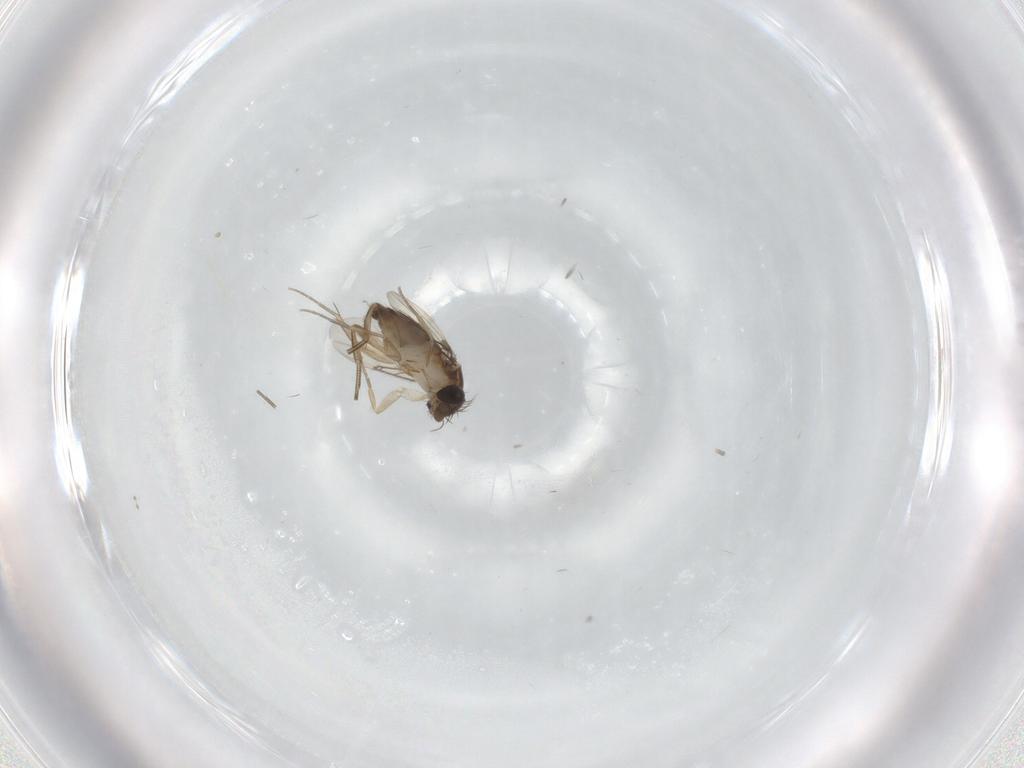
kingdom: Animalia
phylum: Arthropoda
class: Insecta
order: Diptera
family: Phoridae
